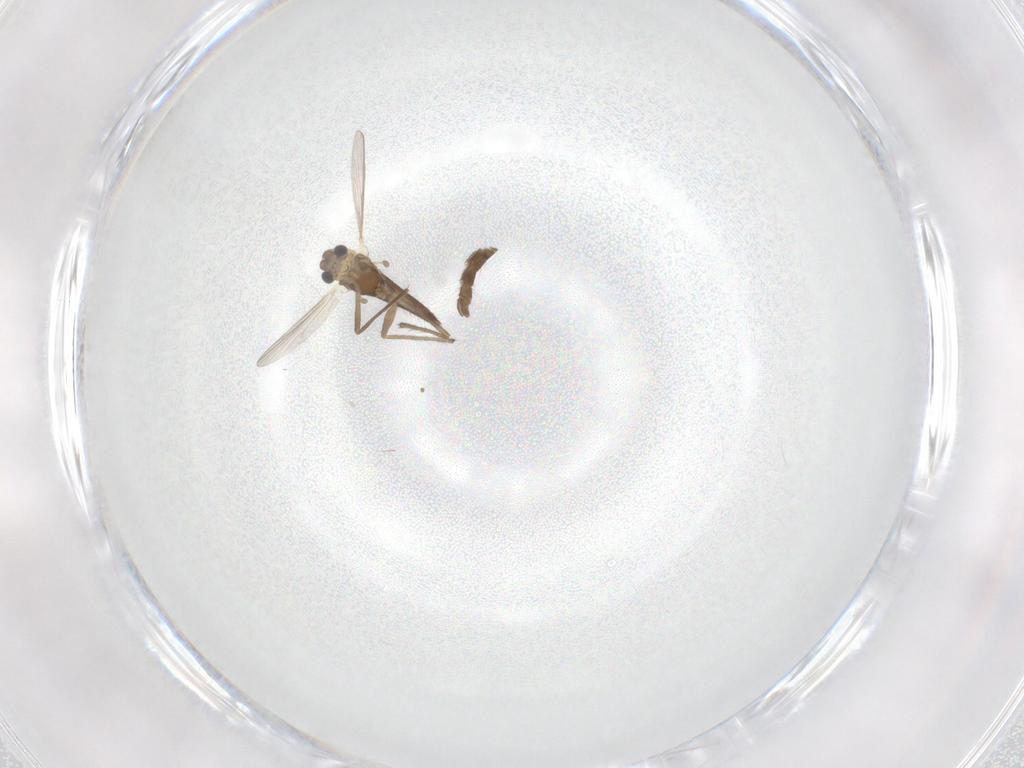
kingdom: Animalia
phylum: Arthropoda
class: Insecta
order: Diptera
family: Chironomidae
